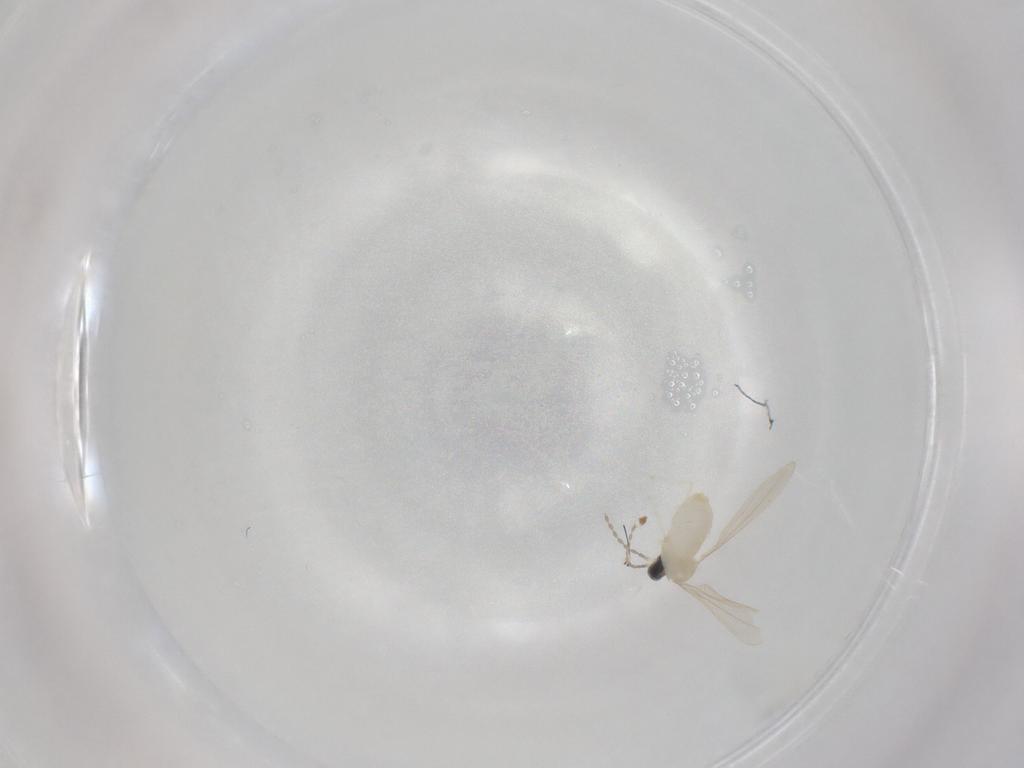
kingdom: Animalia
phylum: Arthropoda
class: Insecta
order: Diptera
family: Cecidomyiidae
